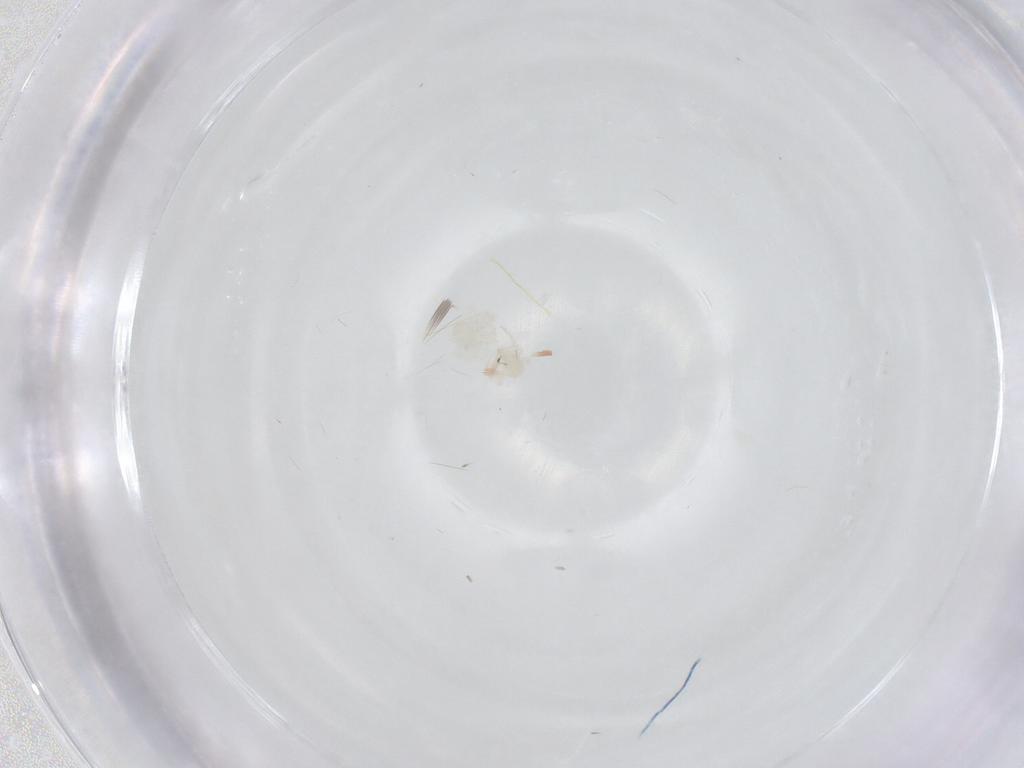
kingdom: Animalia
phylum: Arthropoda
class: Arachnida
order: Trombidiformes
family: Anystidae
